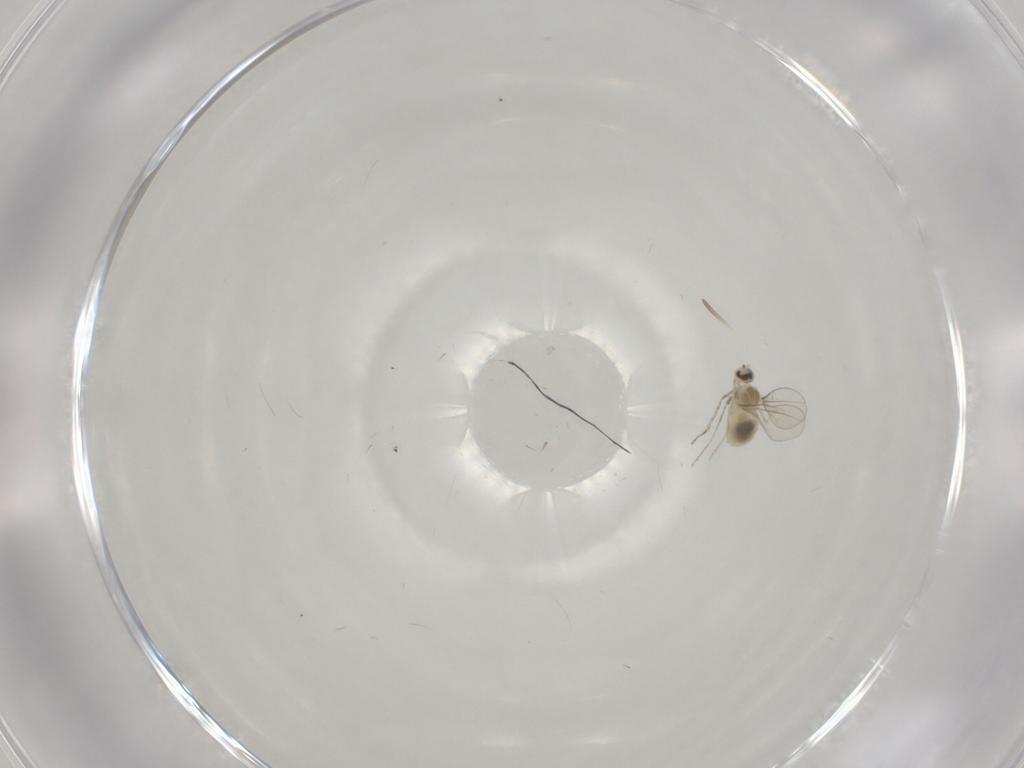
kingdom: Animalia
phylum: Arthropoda
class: Insecta
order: Diptera
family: Cecidomyiidae
